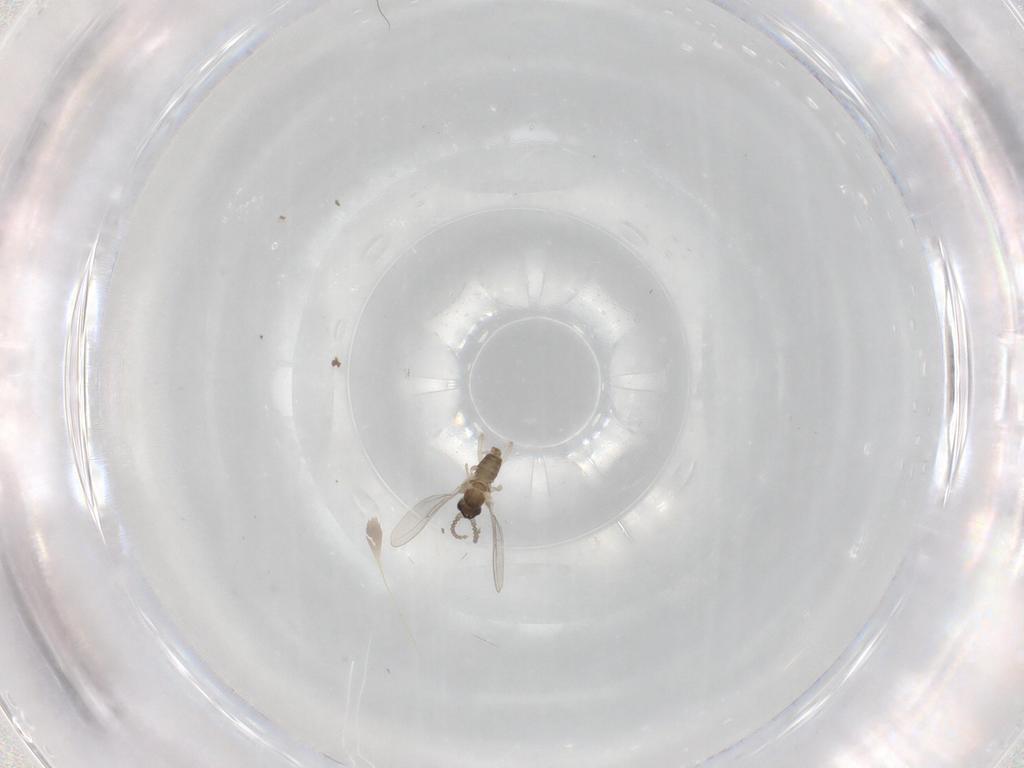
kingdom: Animalia
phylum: Arthropoda
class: Insecta
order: Diptera
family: Cecidomyiidae
